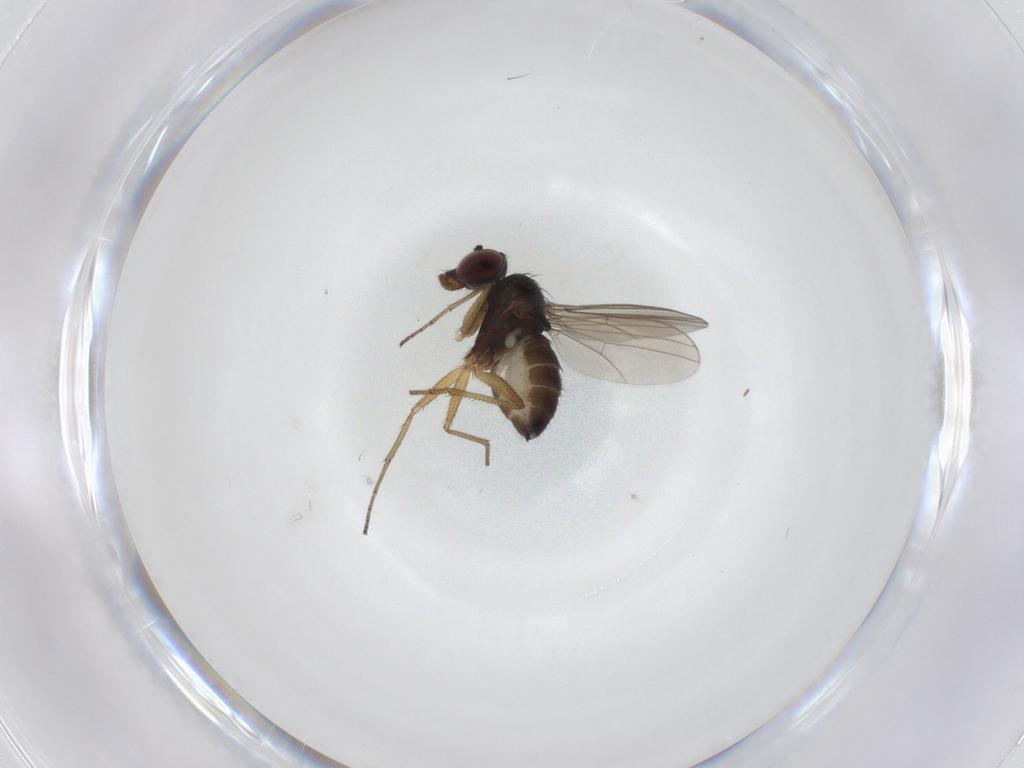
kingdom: Animalia
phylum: Arthropoda
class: Insecta
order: Diptera
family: Dolichopodidae
